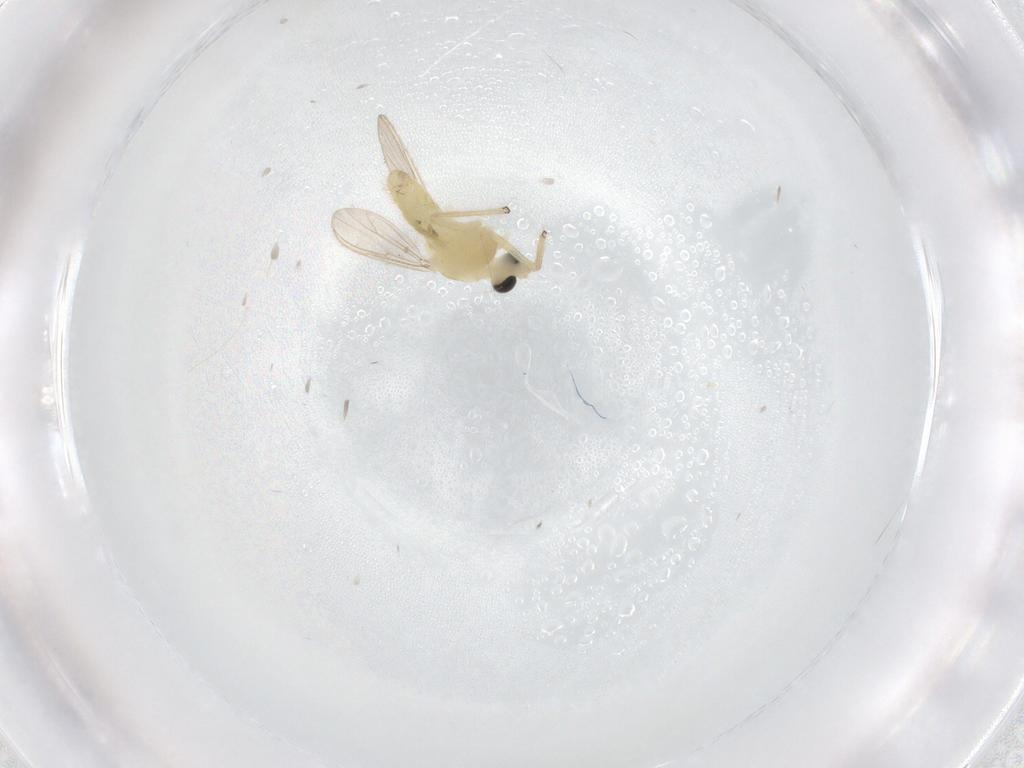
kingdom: Animalia
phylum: Arthropoda
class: Insecta
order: Diptera
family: Chironomidae
